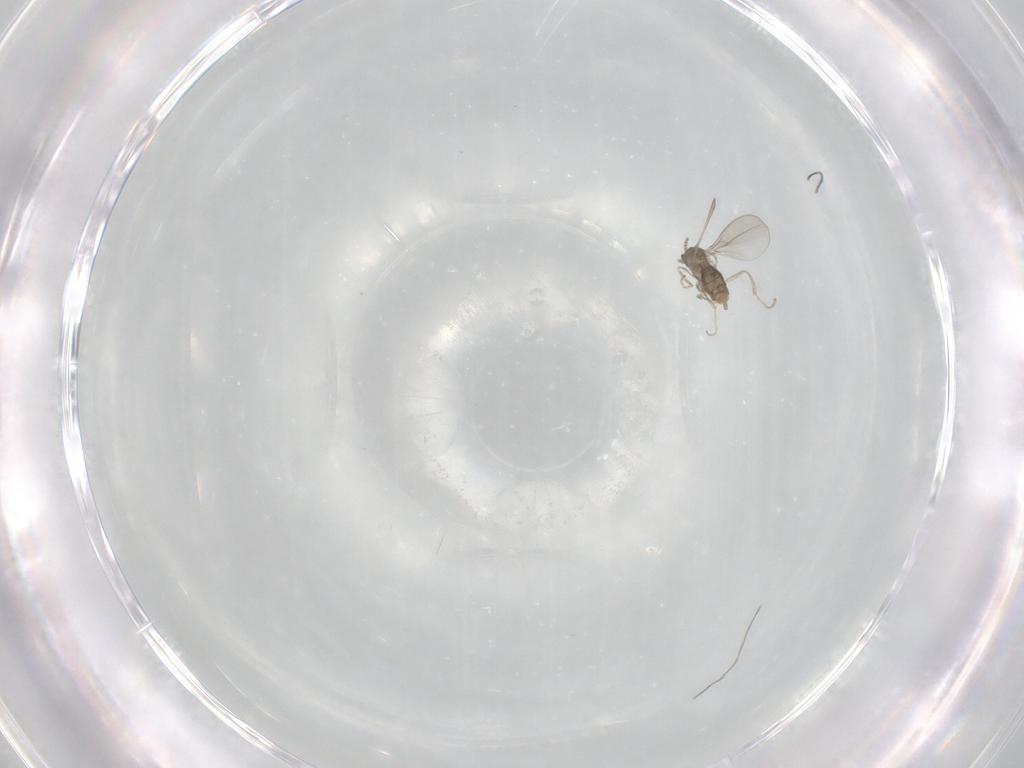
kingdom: Animalia
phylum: Arthropoda
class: Insecta
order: Diptera
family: Cecidomyiidae
